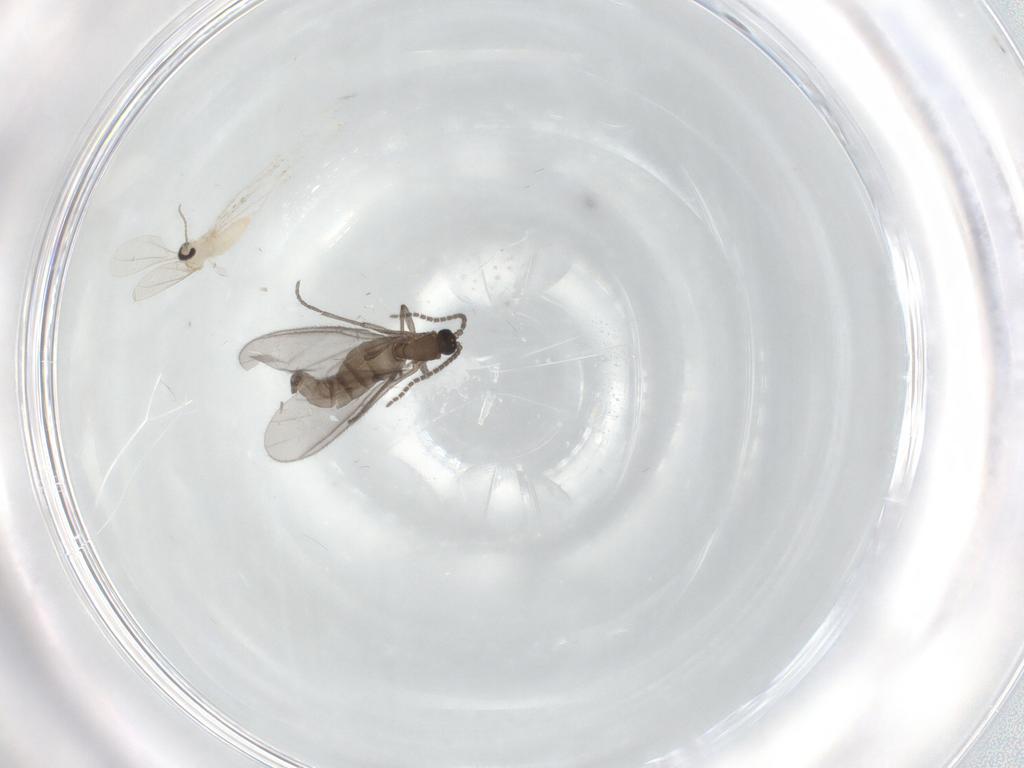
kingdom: Animalia
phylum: Arthropoda
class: Insecta
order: Diptera
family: Sciaridae
